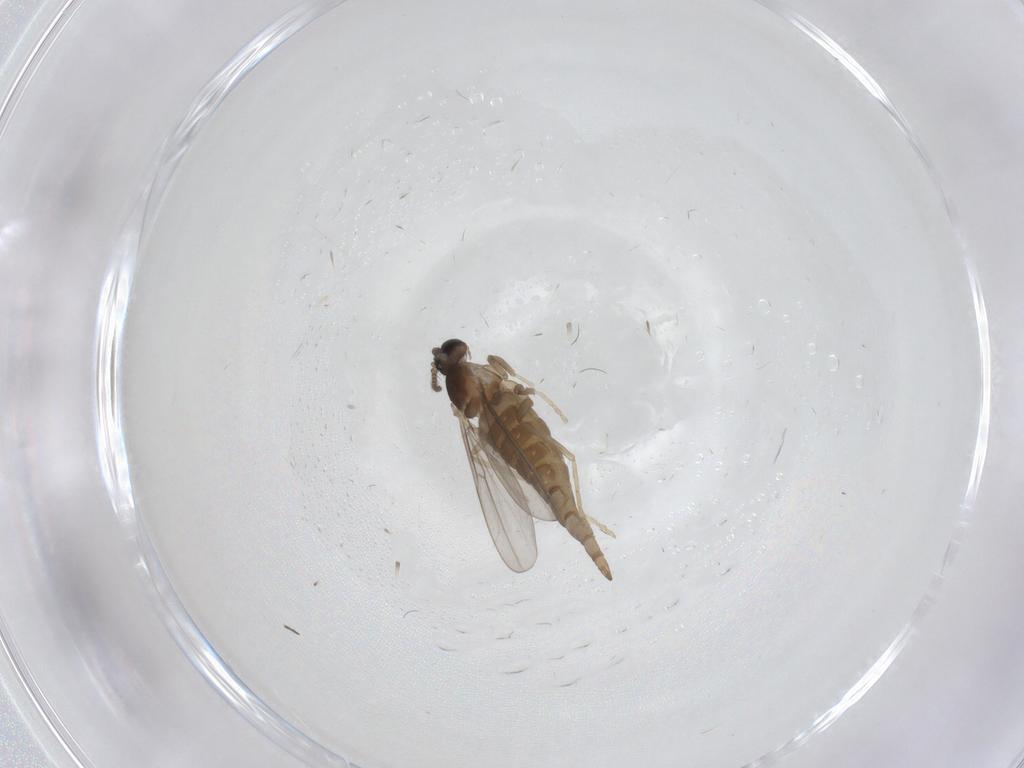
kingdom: Animalia
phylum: Arthropoda
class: Insecta
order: Diptera
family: Cecidomyiidae
